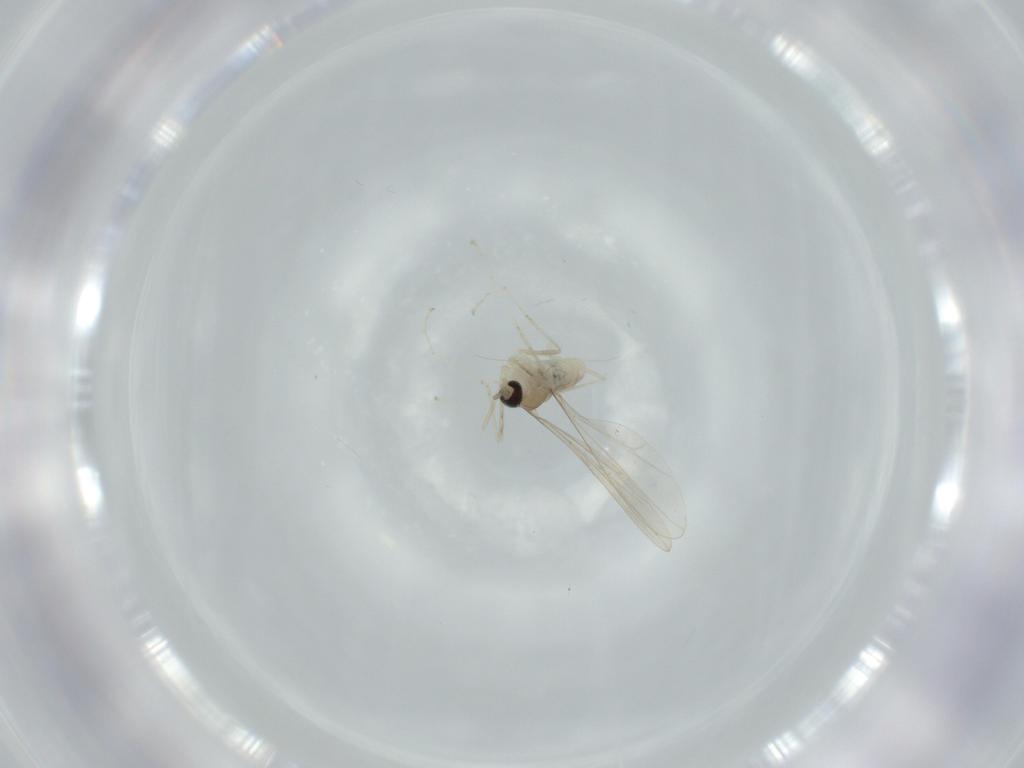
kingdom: Animalia
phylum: Arthropoda
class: Insecta
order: Diptera
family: Cecidomyiidae
